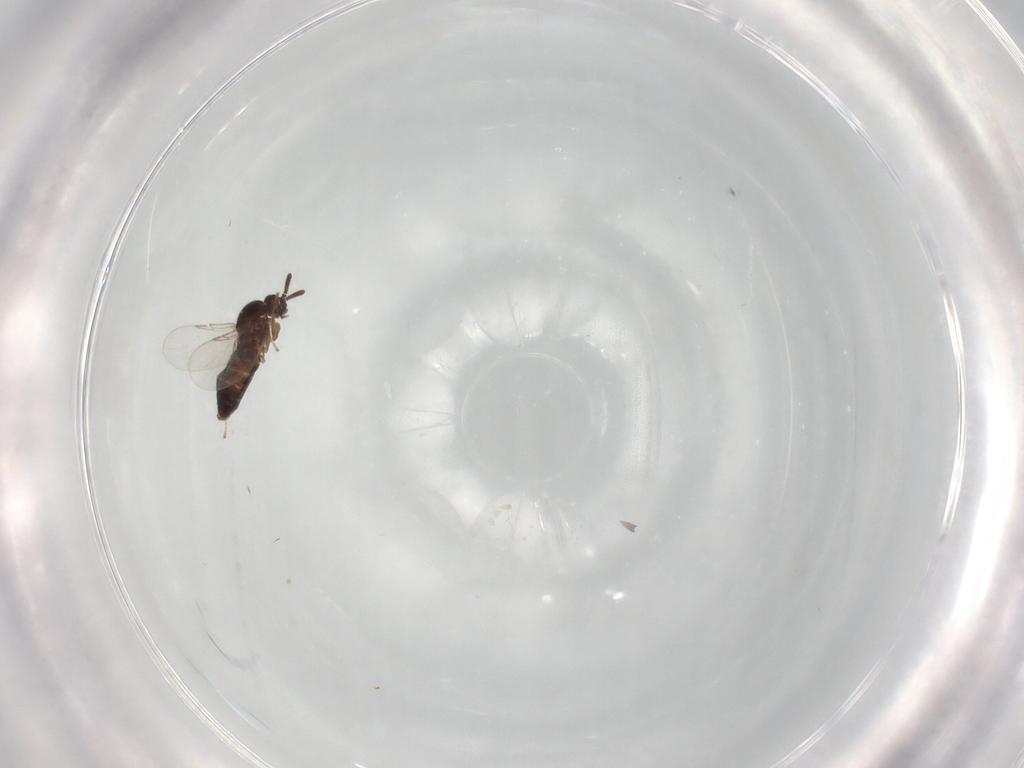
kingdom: Animalia
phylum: Arthropoda
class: Insecta
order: Diptera
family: Scatopsidae
